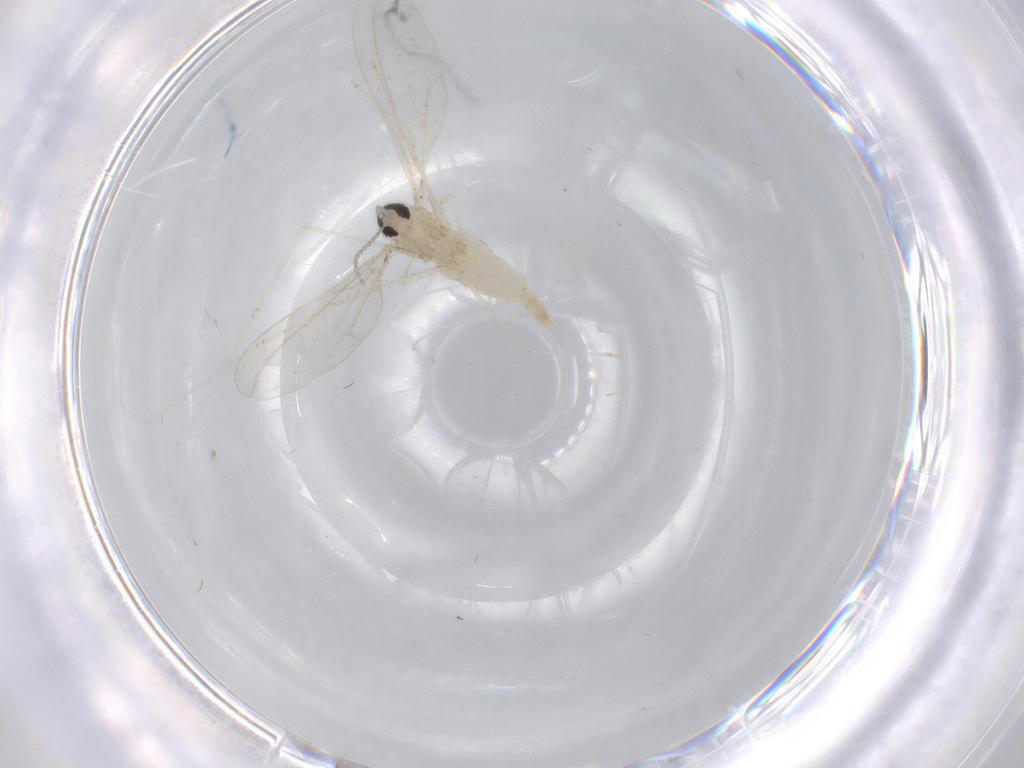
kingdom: Animalia
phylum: Arthropoda
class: Insecta
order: Diptera
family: Cecidomyiidae
